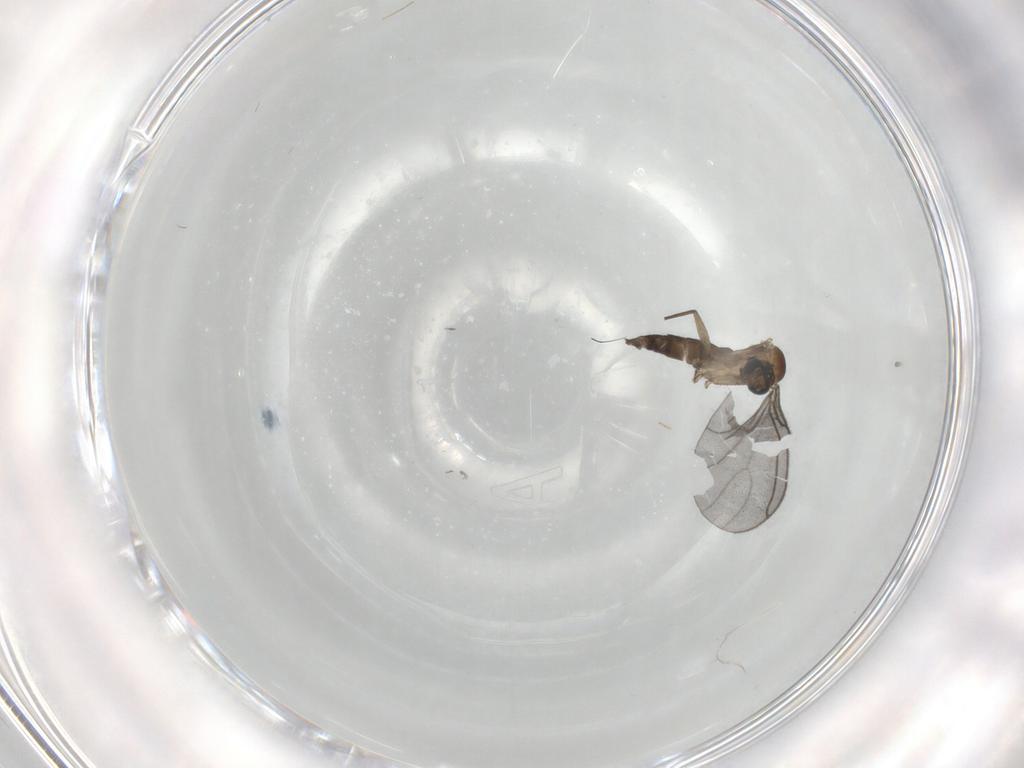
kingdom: Animalia
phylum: Arthropoda
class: Insecta
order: Diptera
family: Sciaridae
